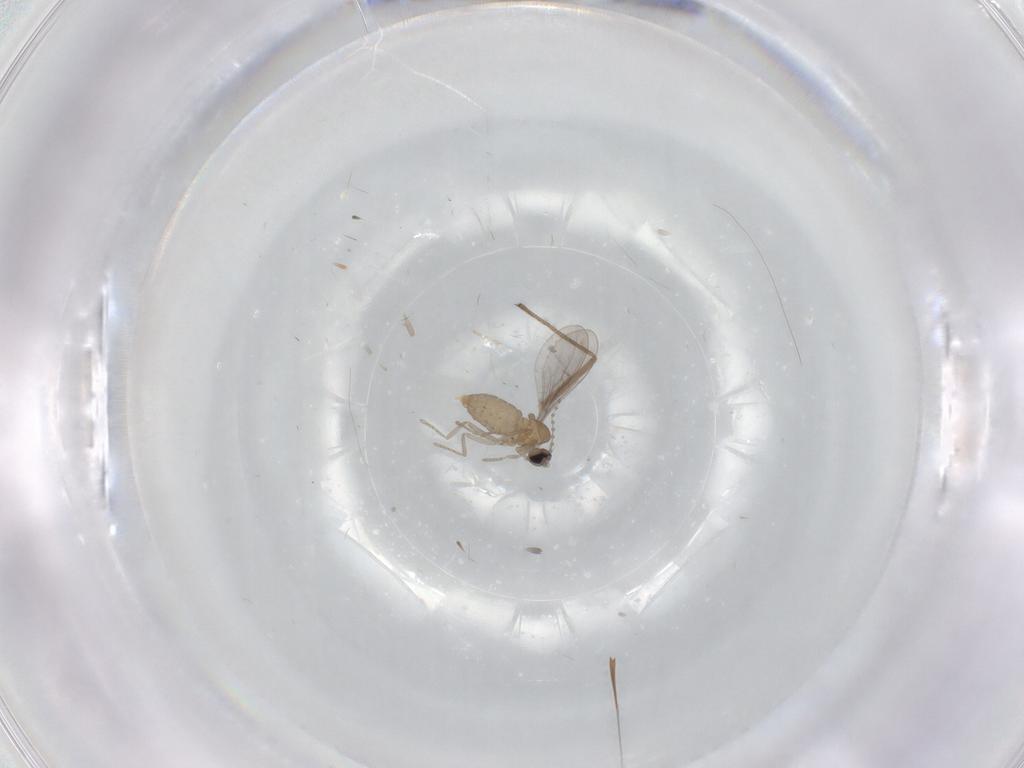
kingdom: Animalia
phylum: Arthropoda
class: Insecta
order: Diptera
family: Cecidomyiidae
